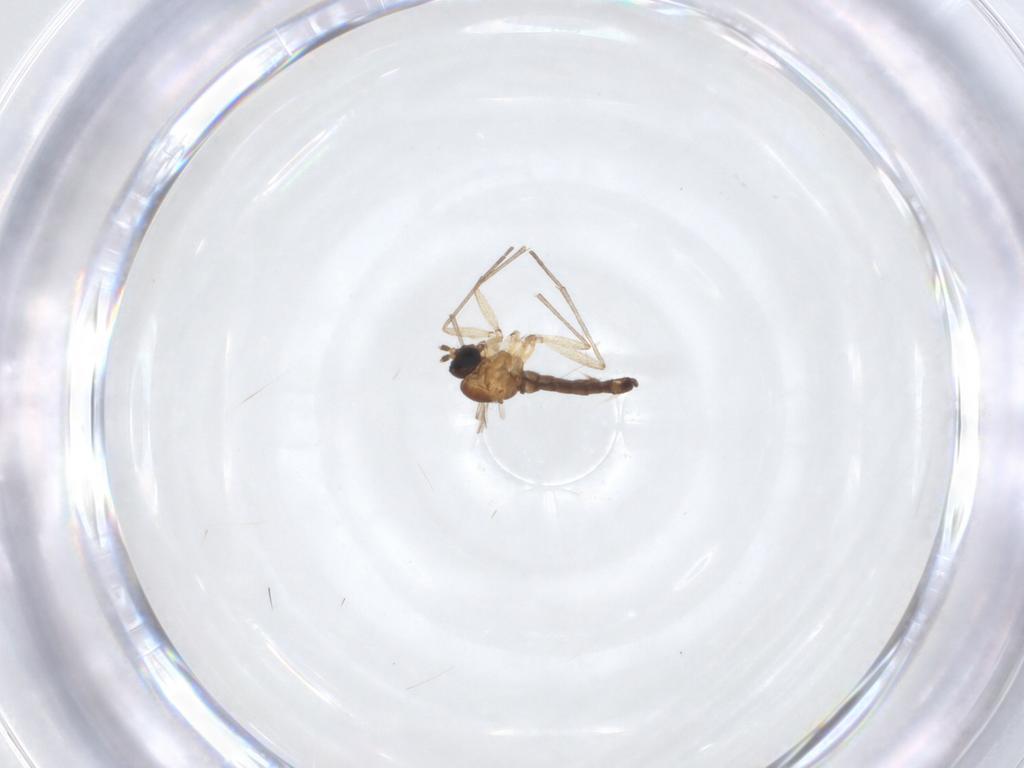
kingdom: Animalia
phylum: Arthropoda
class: Insecta
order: Diptera
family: Sciaridae
